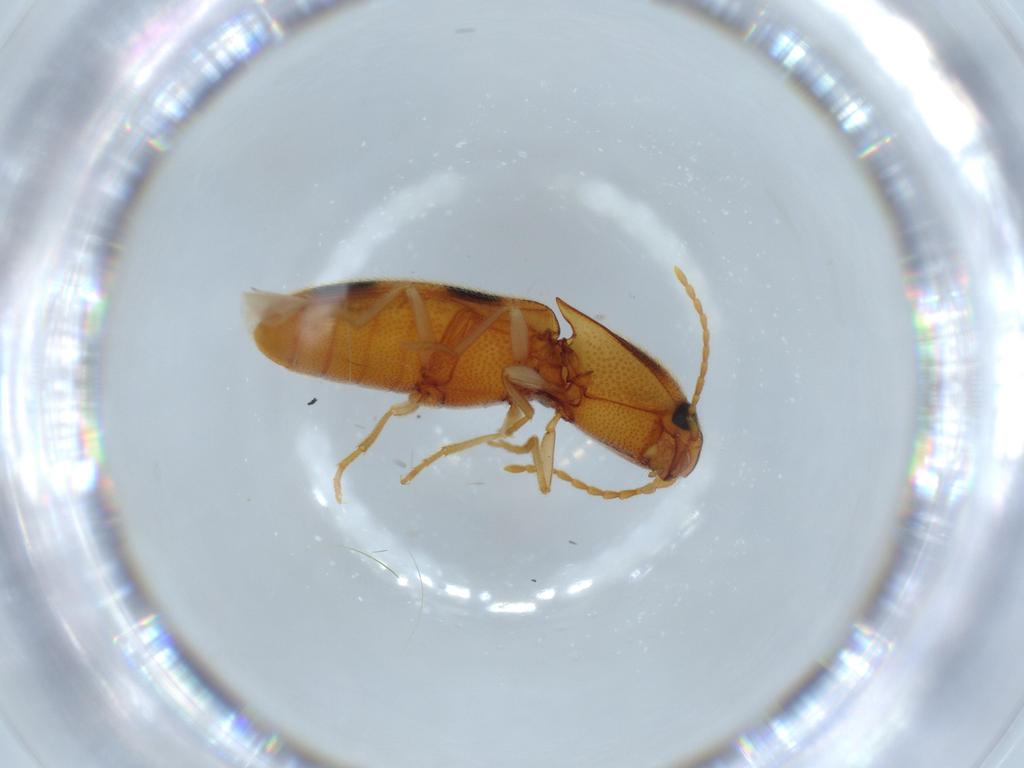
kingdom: Animalia
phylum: Arthropoda
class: Insecta
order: Coleoptera
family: Elateridae
